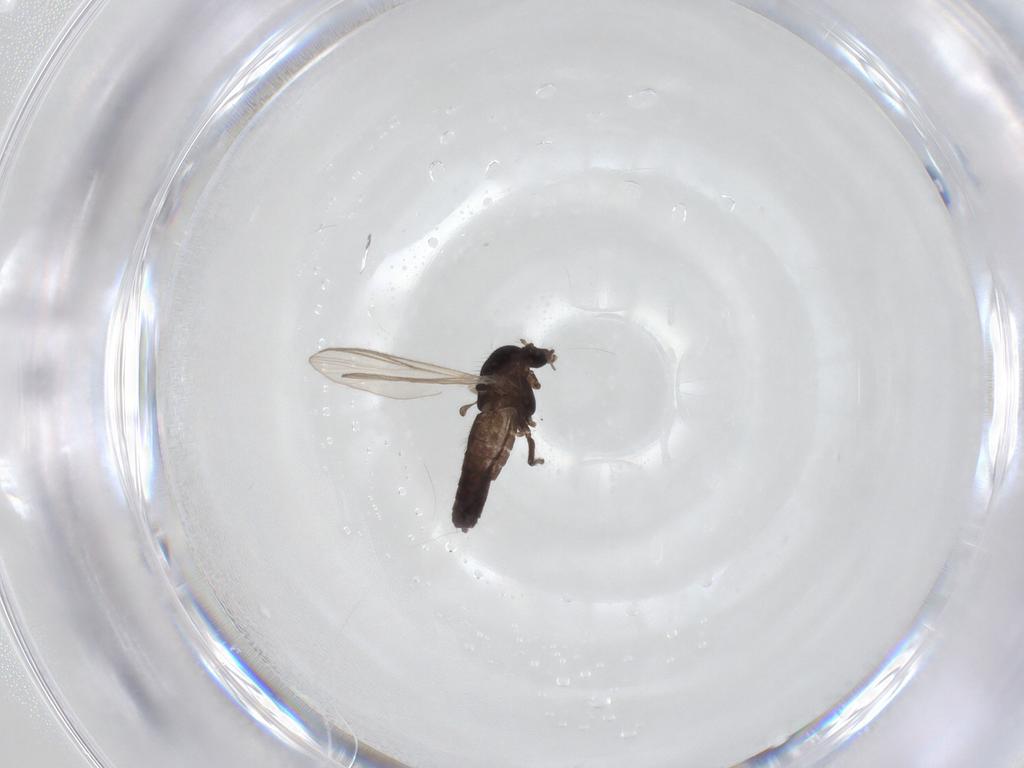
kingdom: Animalia
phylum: Arthropoda
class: Insecta
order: Diptera
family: Chironomidae
